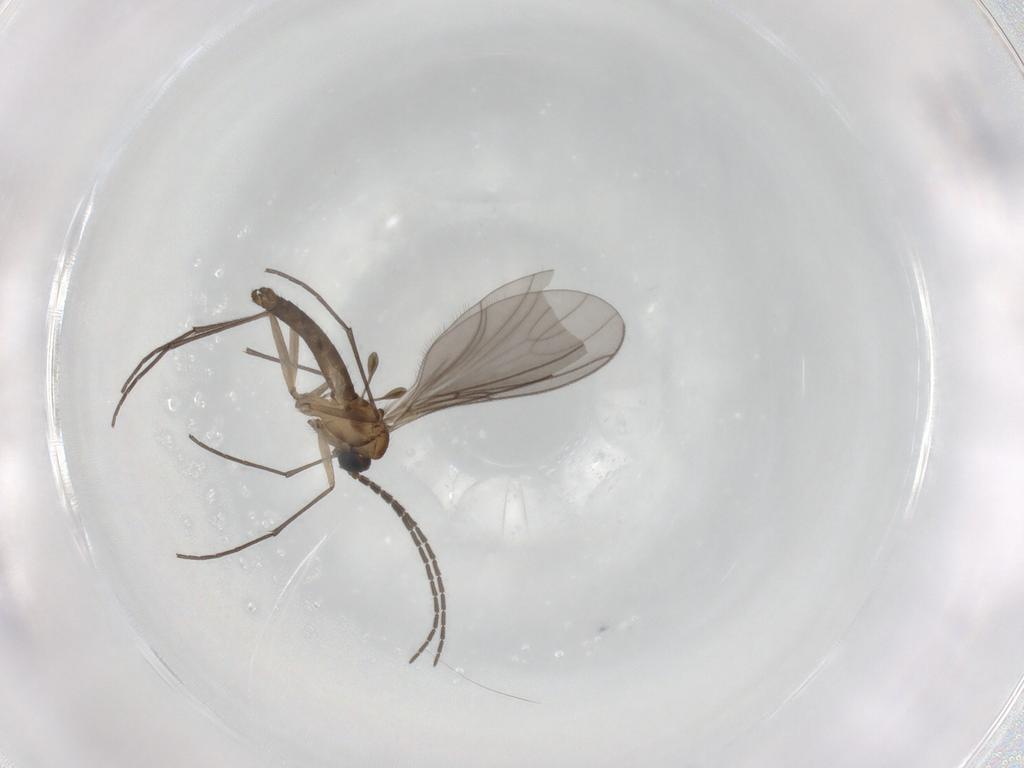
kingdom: Animalia
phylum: Arthropoda
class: Insecta
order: Diptera
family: Sciaridae
